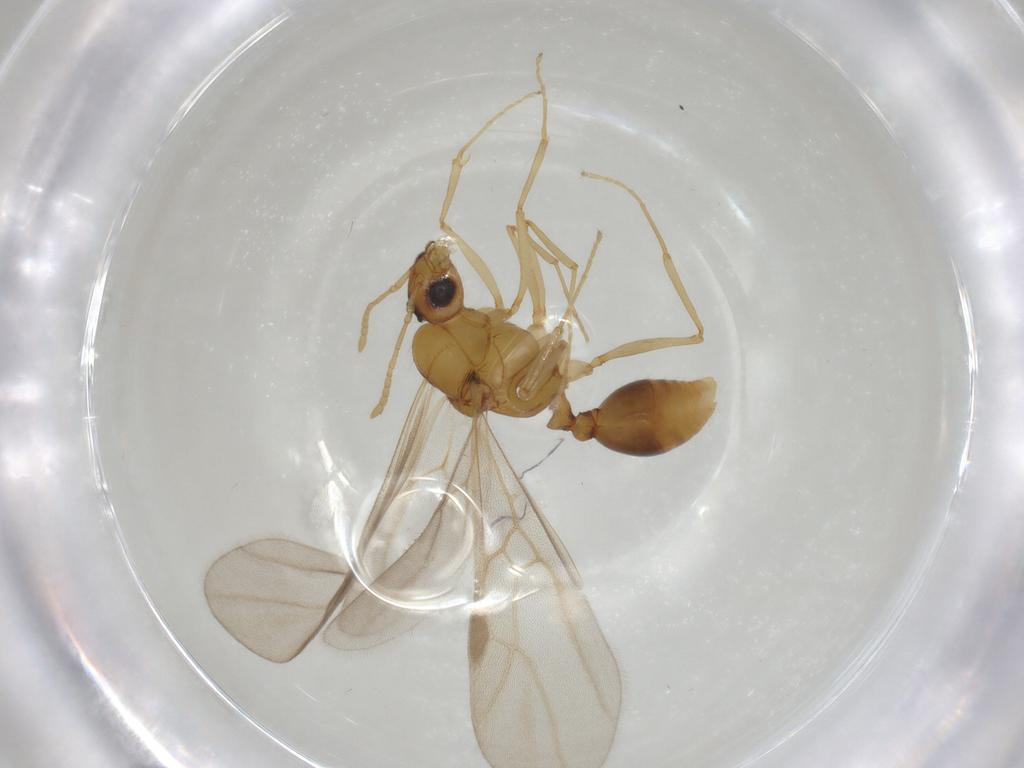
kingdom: Animalia
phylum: Arthropoda
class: Insecta
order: Hymenoptera
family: Formicidae
